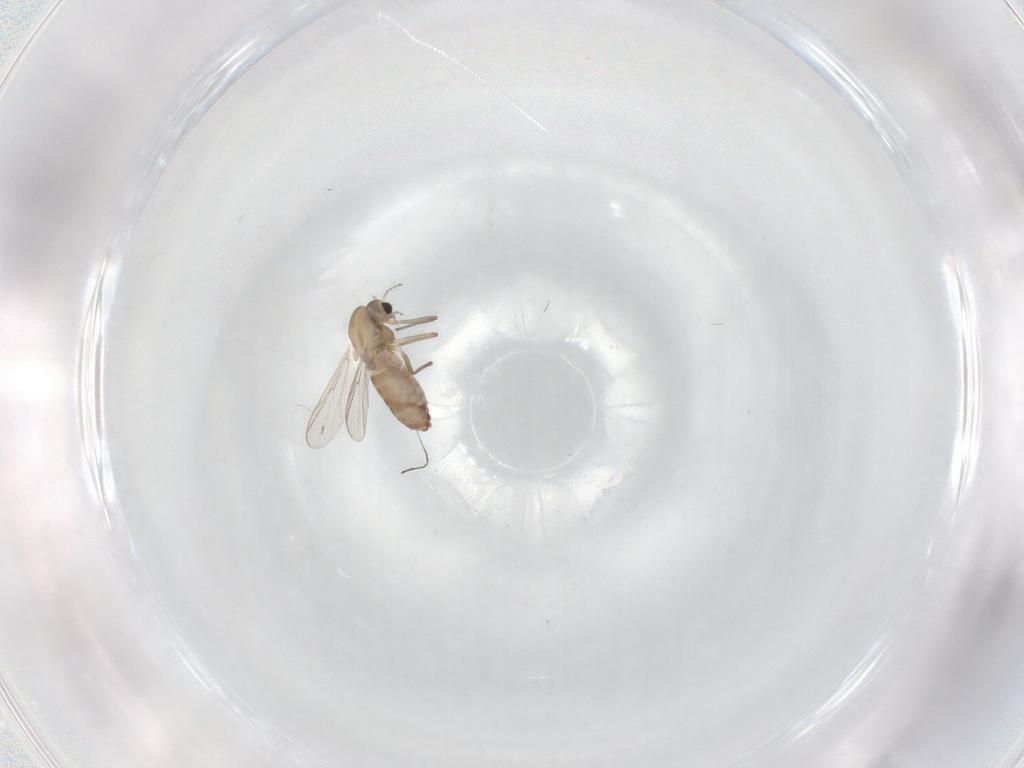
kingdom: Animalia
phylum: Arthropoda
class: Insecta
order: Diptera
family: Chironomidae
